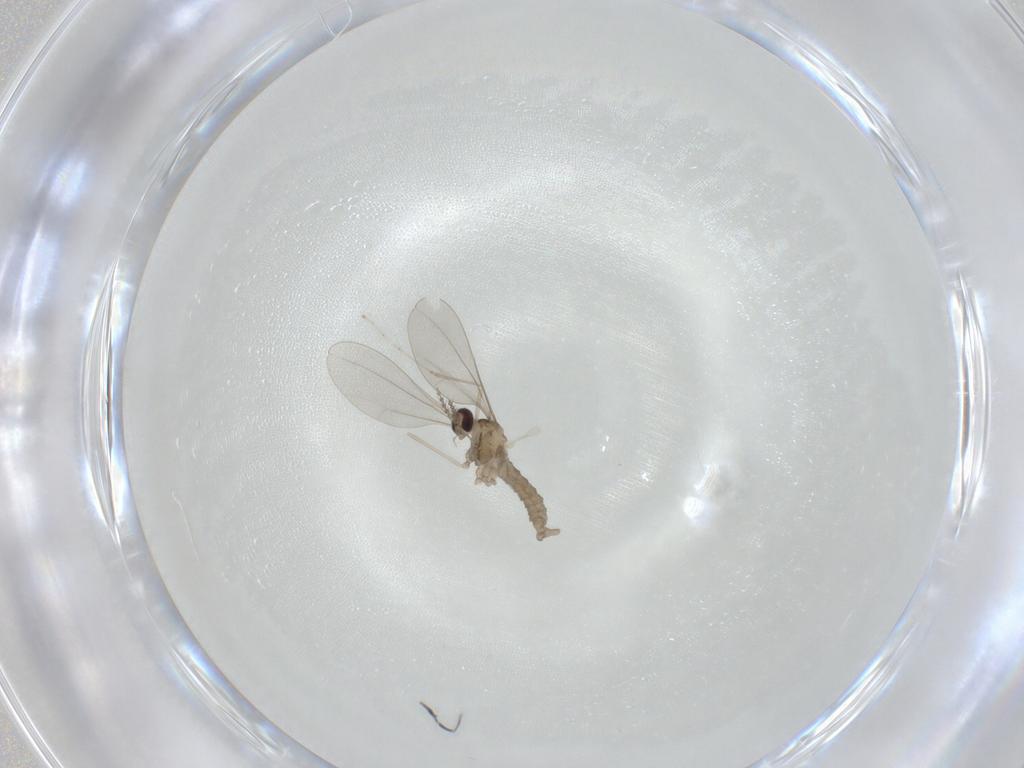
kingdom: Animalia
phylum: Arthropoda
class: Insecta
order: Diptera
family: Cecidomyiidae
